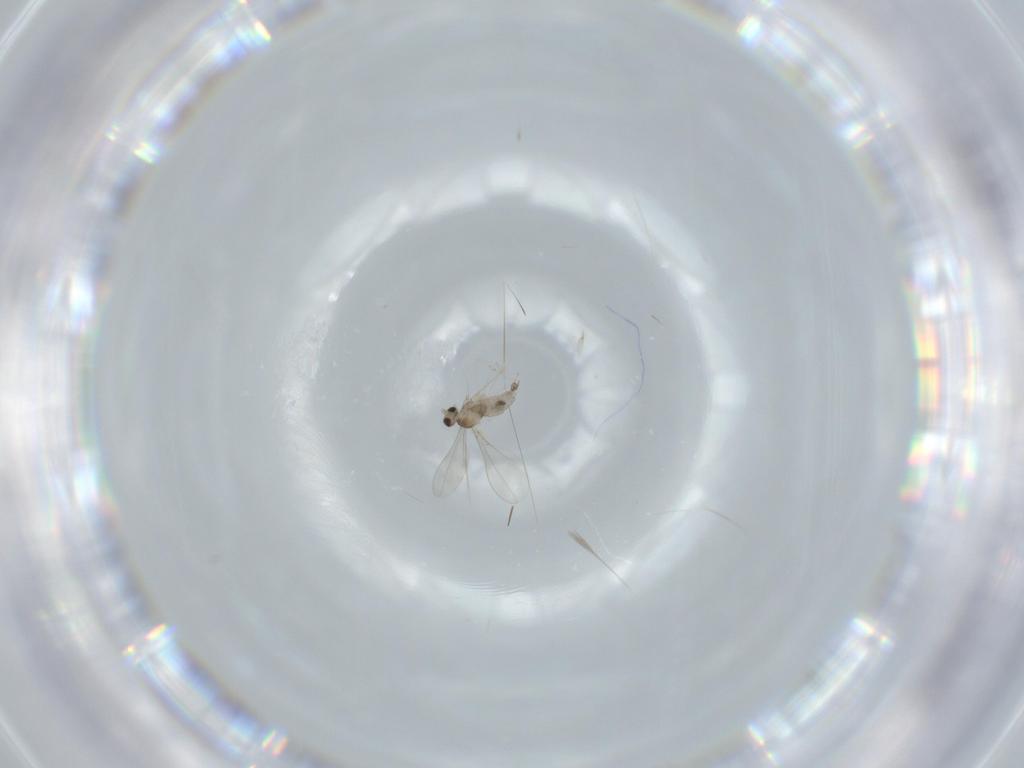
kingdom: Animalia
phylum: Arthropoda
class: Insecta
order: Diptera
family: Cecidomyiidae
